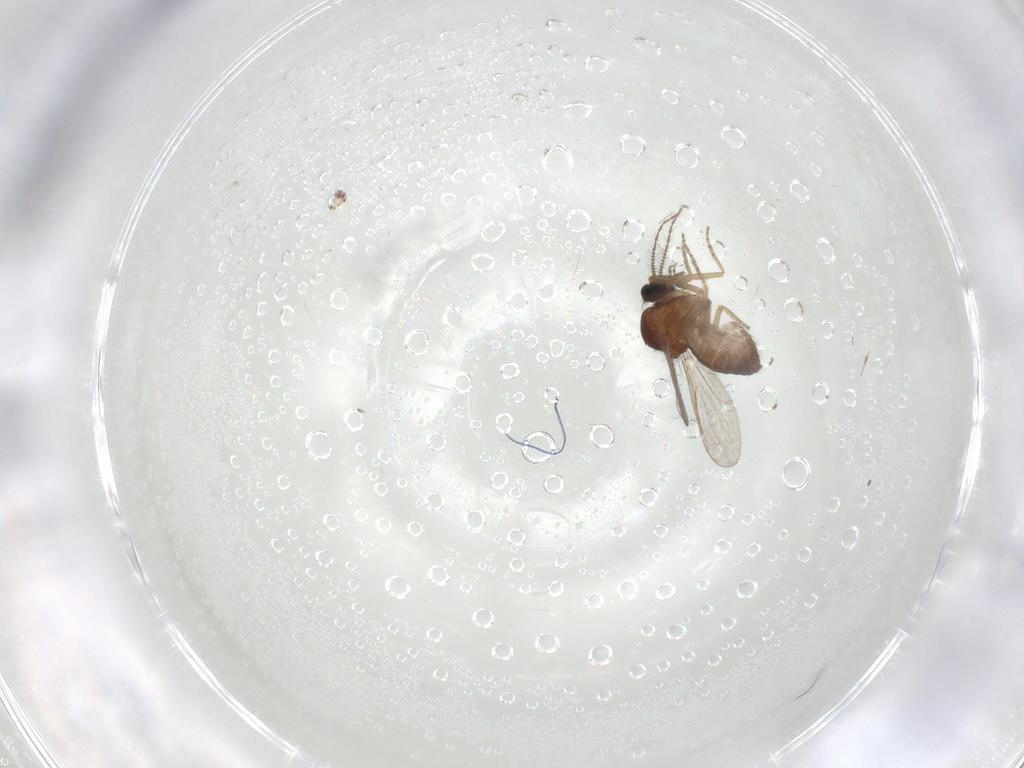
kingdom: Animalia
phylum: Arthropoda
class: Insecta
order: Diptera
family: Ceratopogonidae
